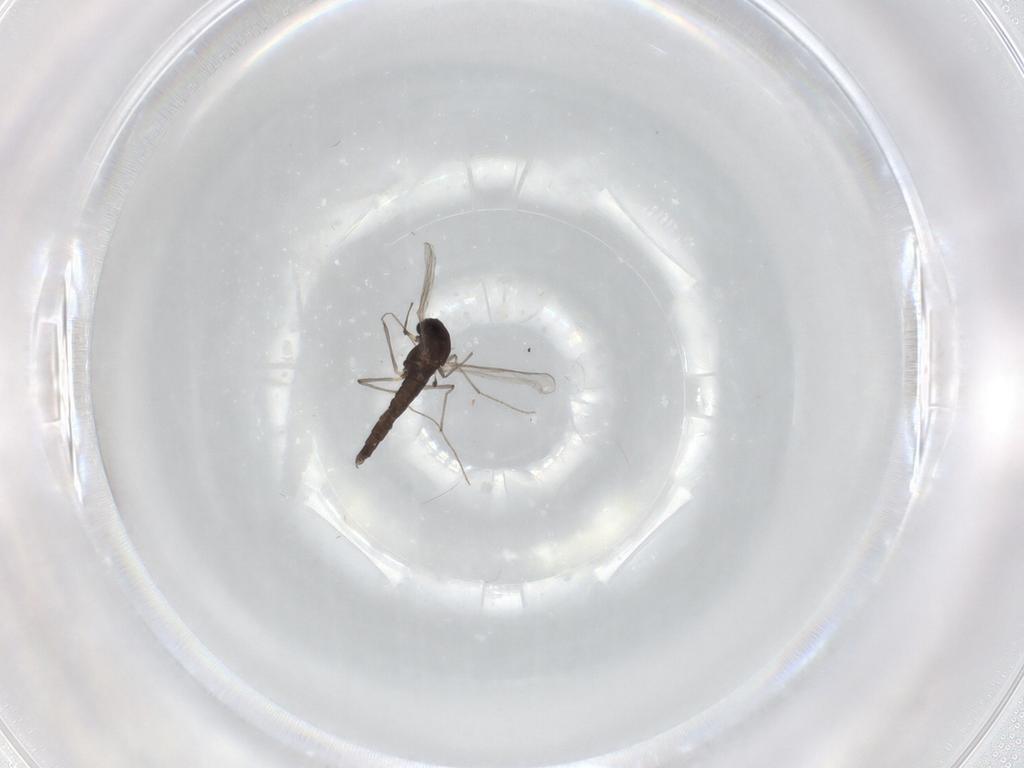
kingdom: Animalia
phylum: Arthropoda
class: Insecta
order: Diptera
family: Chironomidae
